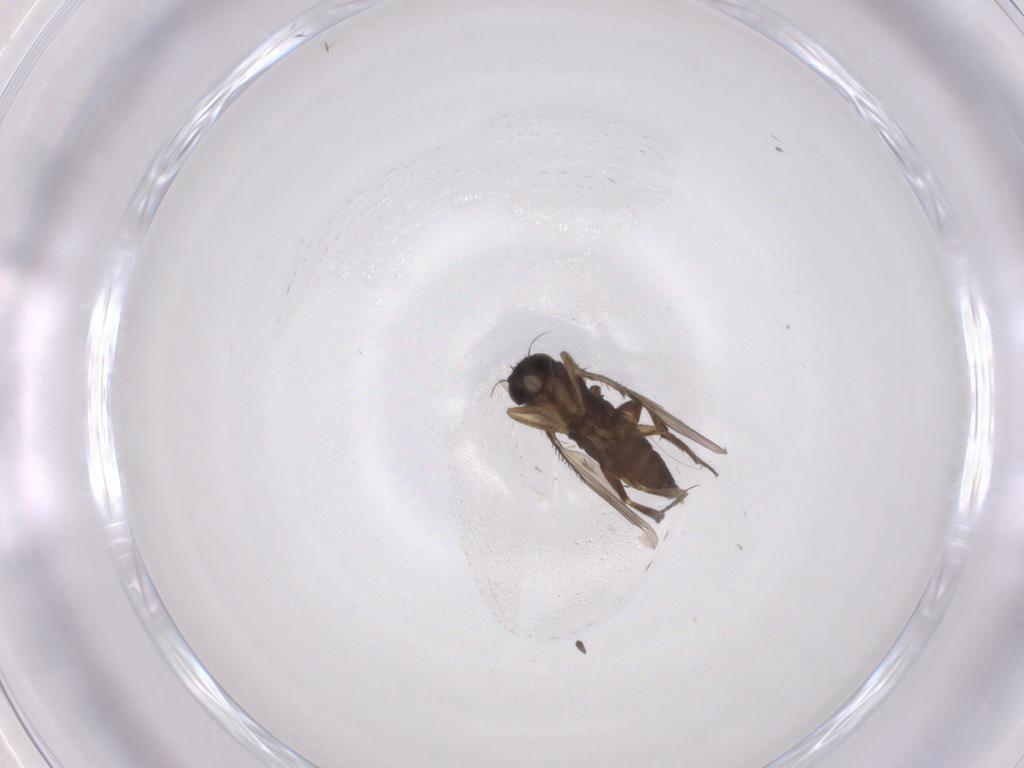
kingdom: Animalia
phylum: Arthropoda
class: Insecta
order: Diptera
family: Phoridae
